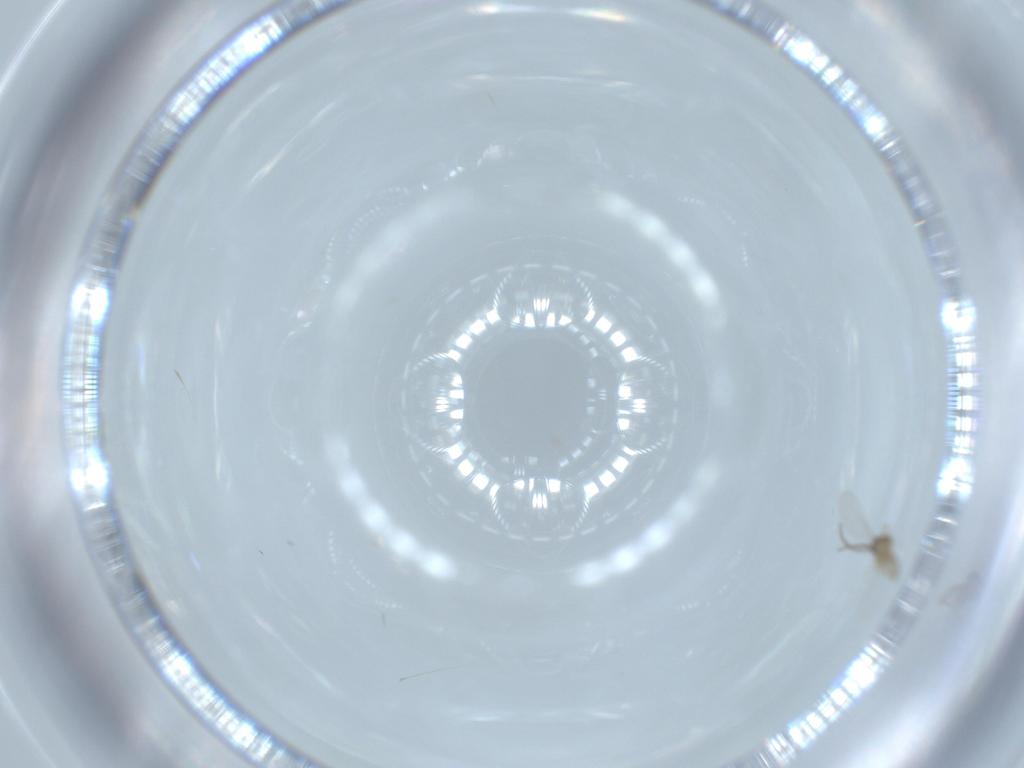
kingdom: Animalia
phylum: Arthropoda
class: Insecta
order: Diptera
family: Cecidomyiidae
